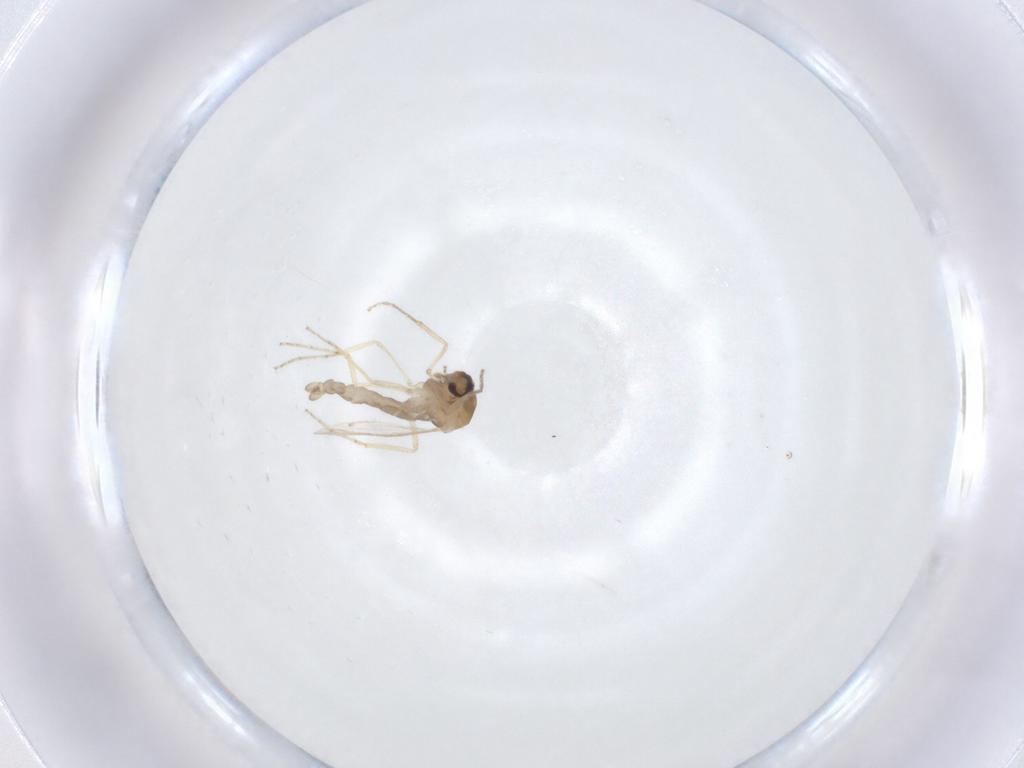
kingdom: Animalia
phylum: Arthropoda
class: Insecta
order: Diptera
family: Ceratopogonidae
